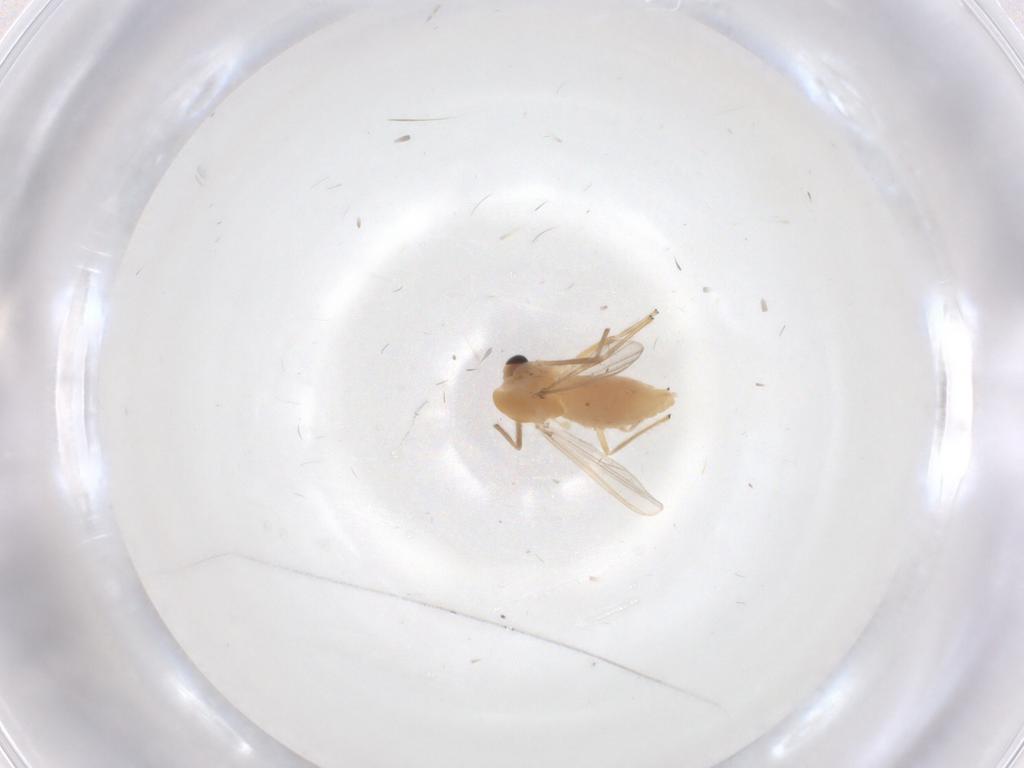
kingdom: Animalia
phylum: Arthropoda
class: Insecta
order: Diptera
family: Chironomidae
